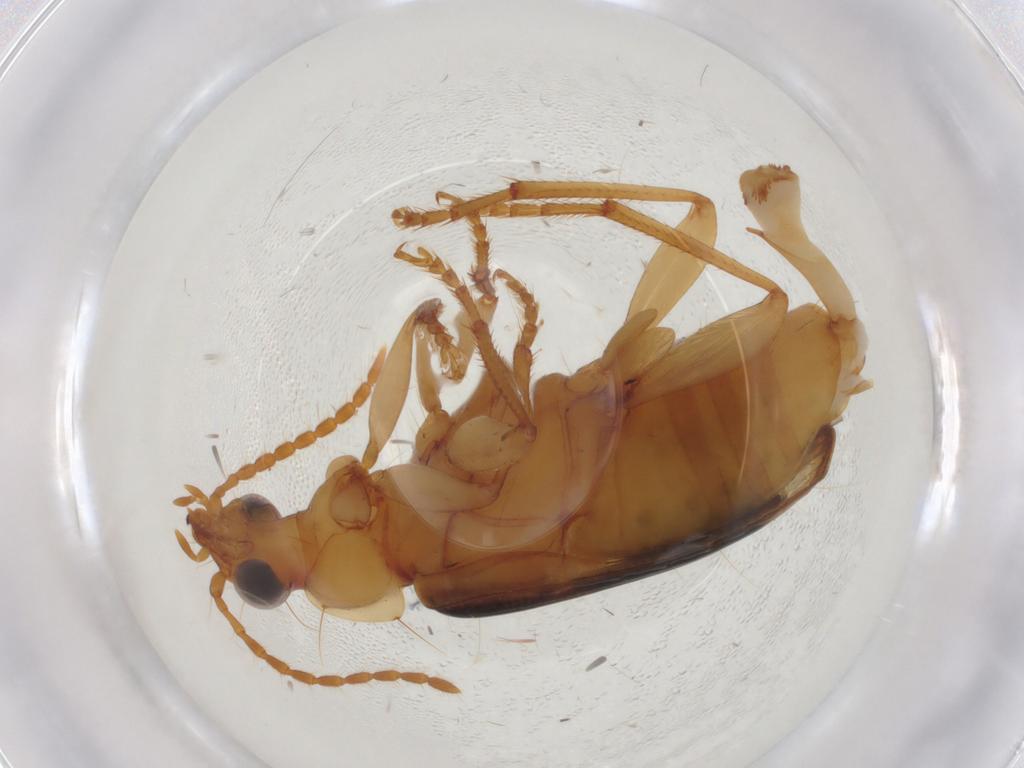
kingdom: Animalia
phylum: Arthropoda
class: Insecta
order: Coleoptera
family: Carabidae
